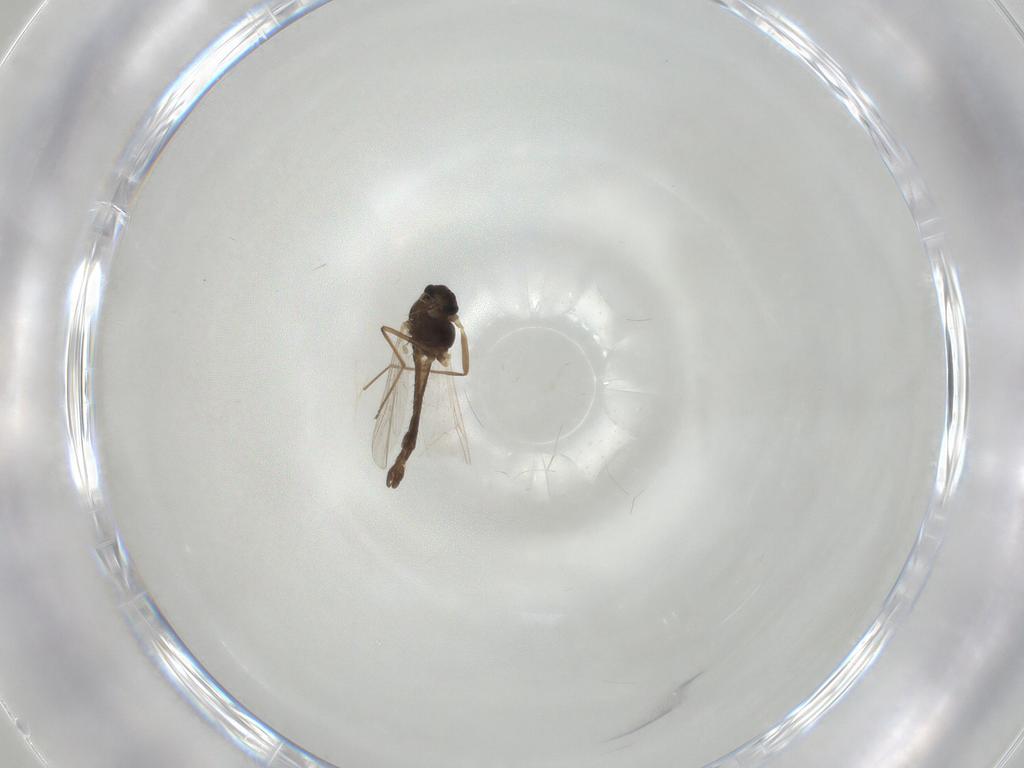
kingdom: Animalia
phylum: Arthropoda
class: Insecta
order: Diptera
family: Chironomidae
